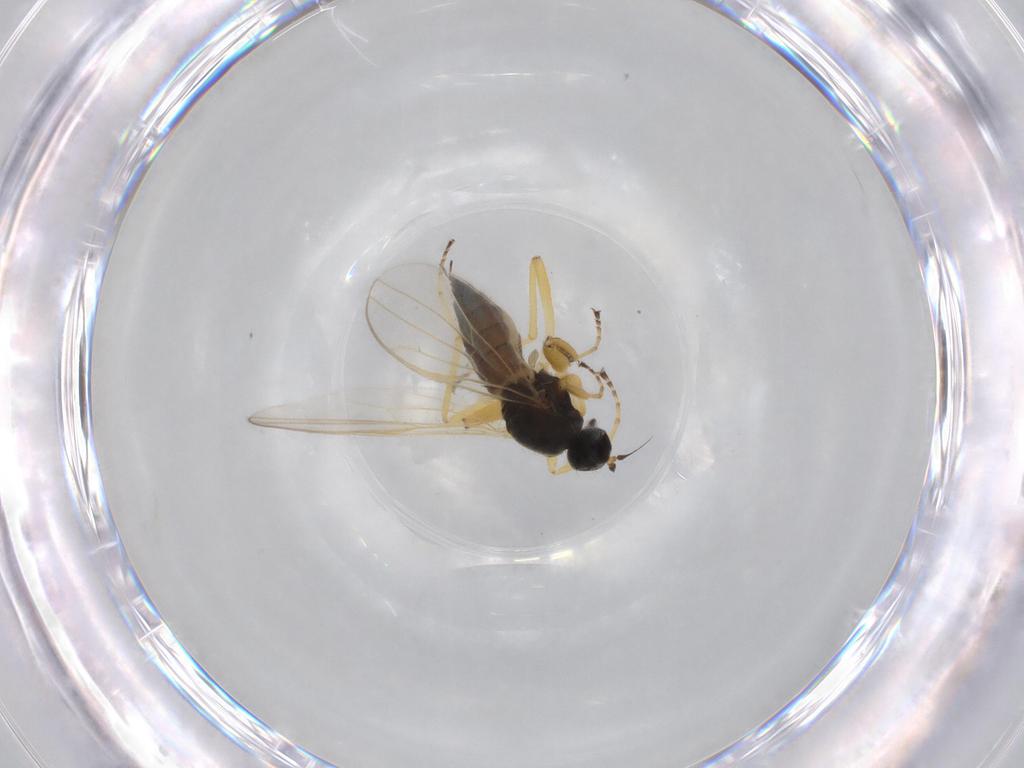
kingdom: Animalia
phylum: Arthropoda
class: Insecta
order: Diptera
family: Hybotidae
